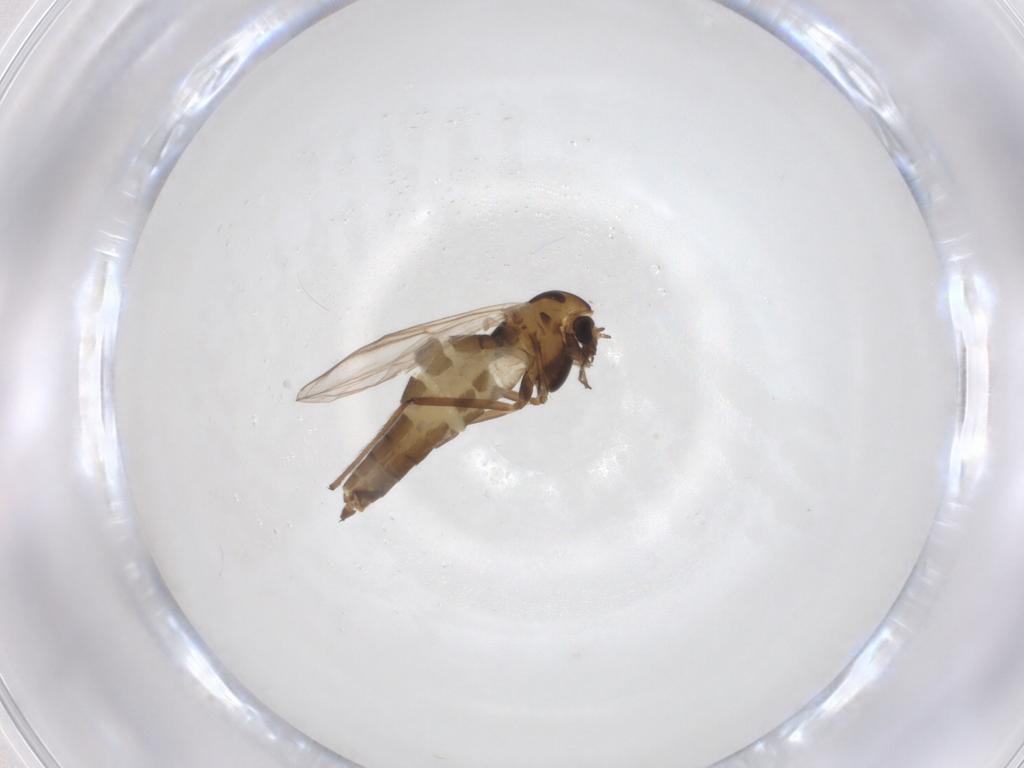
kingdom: Animalia
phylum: Arthropoda
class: Insecta
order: Diptera
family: Chironomidae
